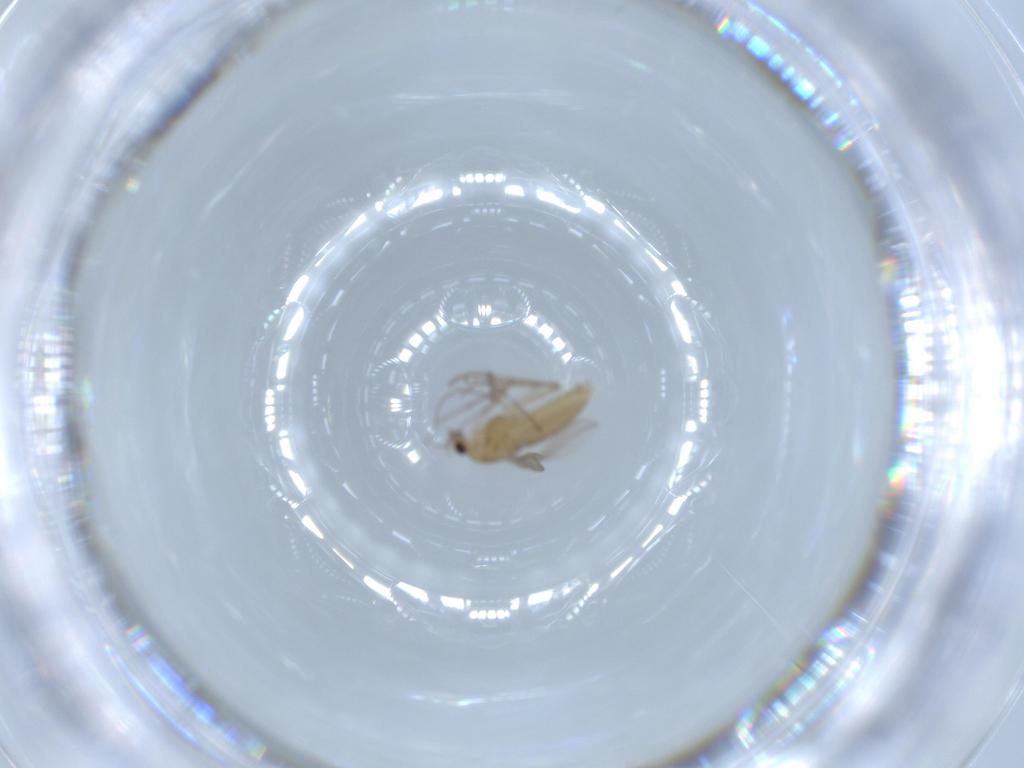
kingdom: Animalia
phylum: Arthropoda
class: Insecta
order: Diptera
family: Chironomidae
